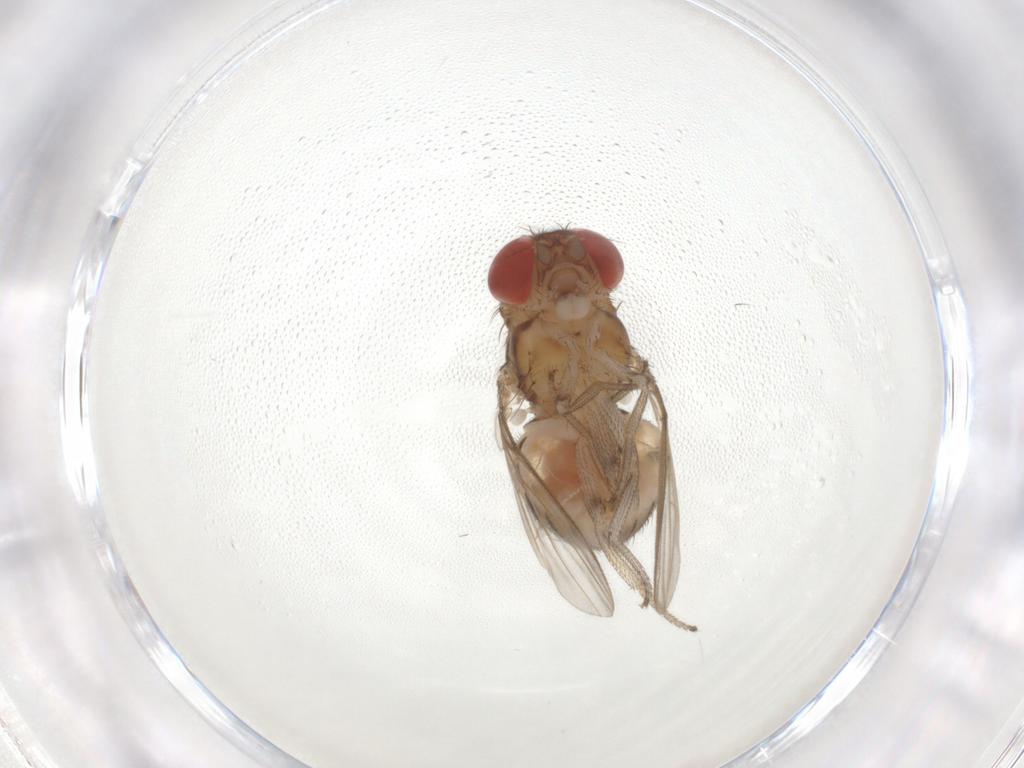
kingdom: Animalia
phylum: Arthropoda
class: Insecta
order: Diptera
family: Cecidomyiidae
